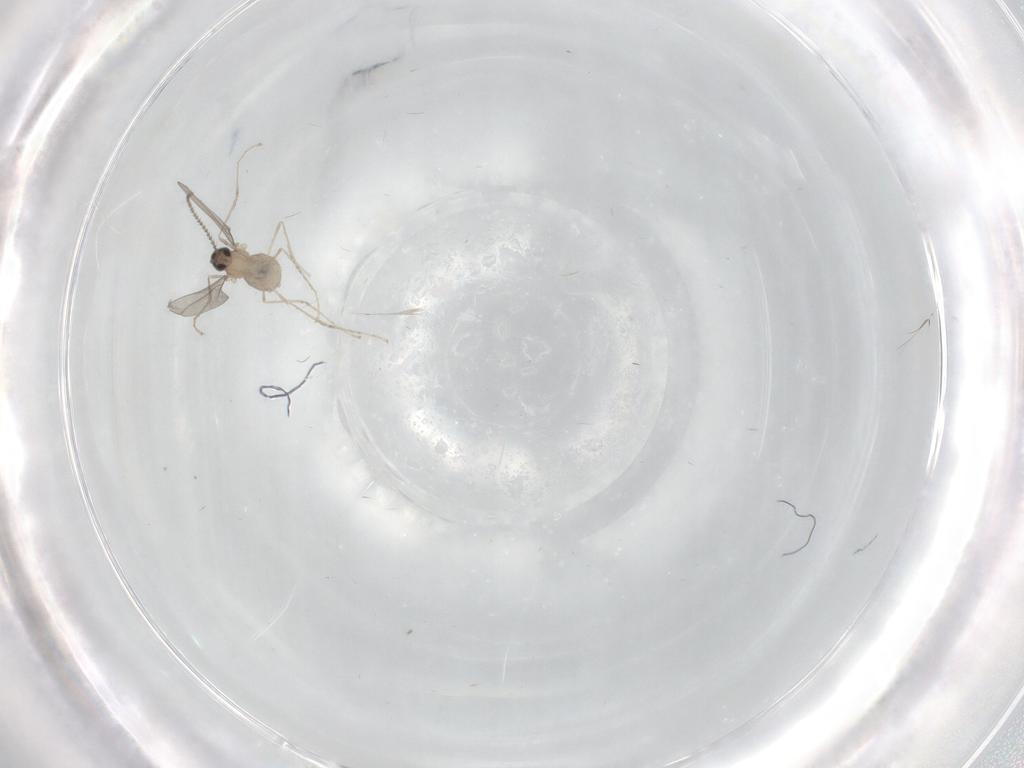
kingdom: Animalia
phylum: Arthropoda
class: Insecta
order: Diptera
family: Cecidomyiidae
